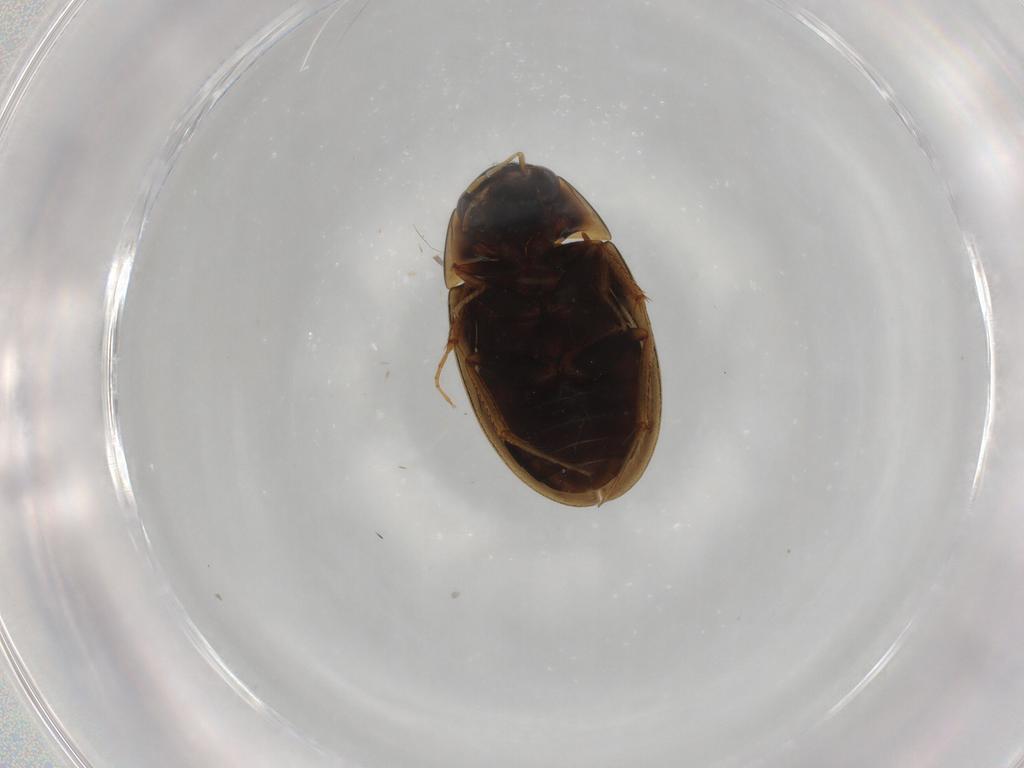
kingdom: Animalia
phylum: Arthropoda
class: Insecta
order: Coleoptera
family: Carabidae
